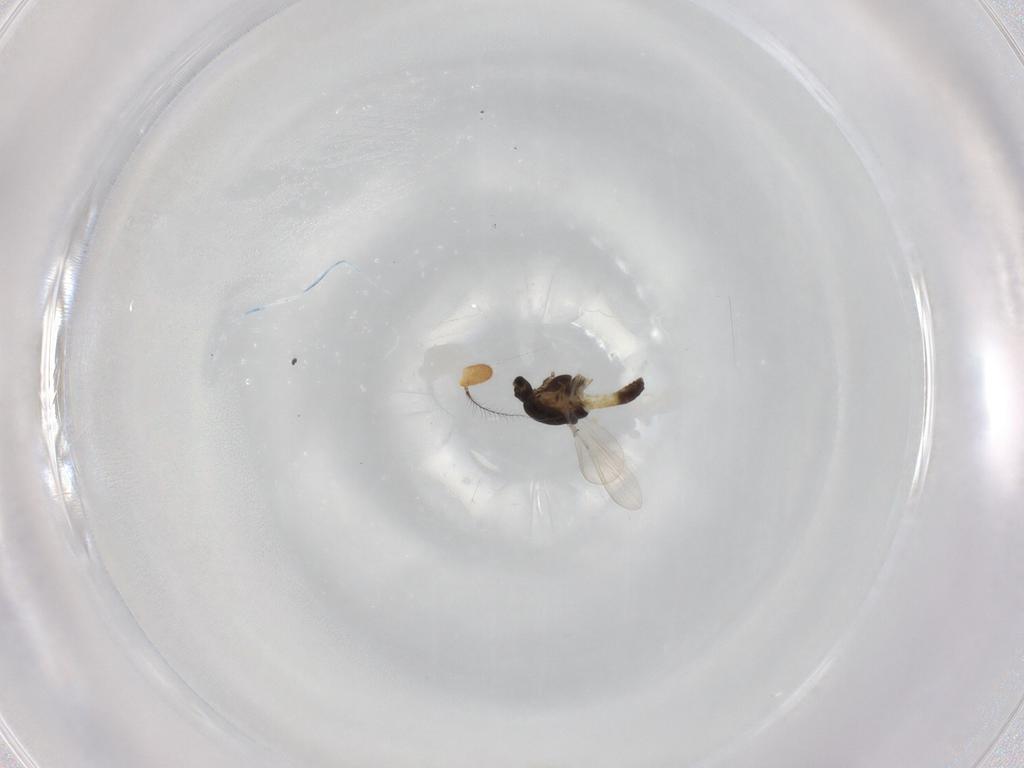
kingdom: Animalia
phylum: Arthropoda
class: Insecta
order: Diptera
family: Chironomidae
